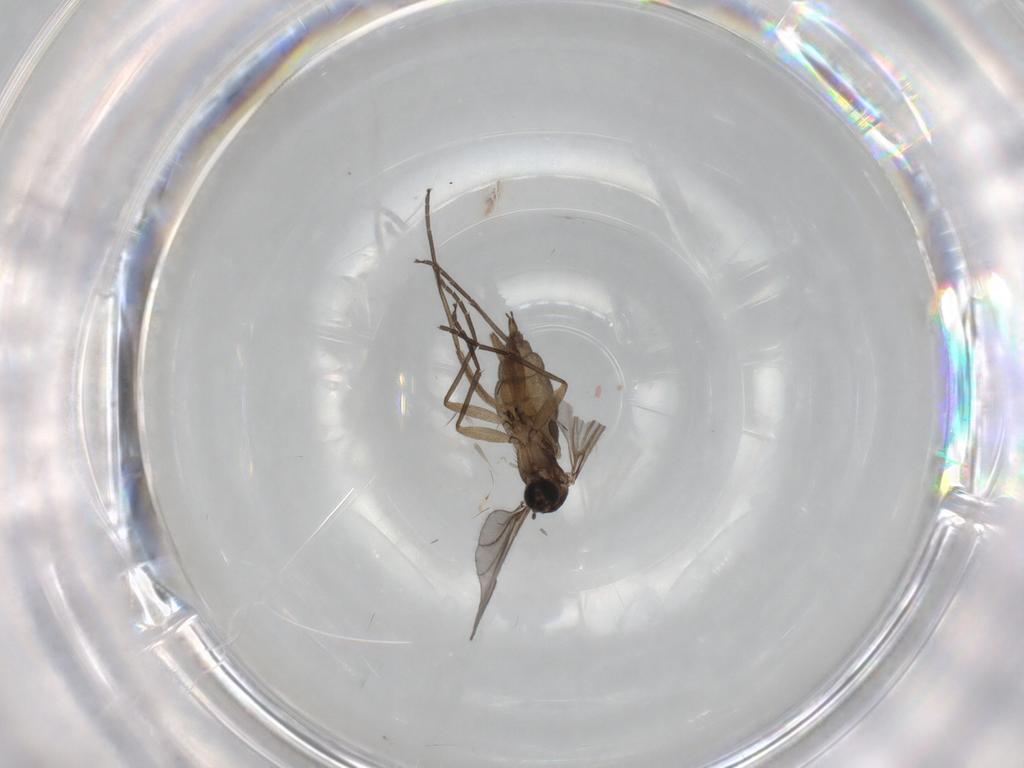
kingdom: Animalia
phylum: Arthropoda
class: Insecta
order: Diptera
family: Sciaridae
